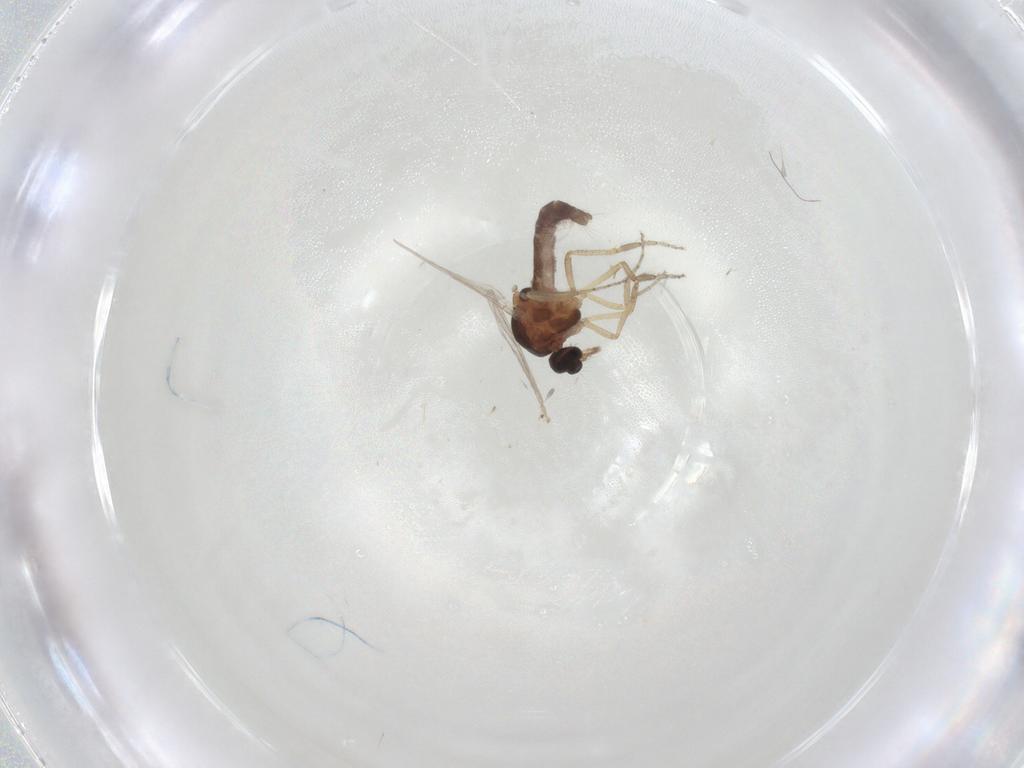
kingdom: Animalia
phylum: Arthropoda
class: Insecta
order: Diptera
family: Ceratopogonidae
